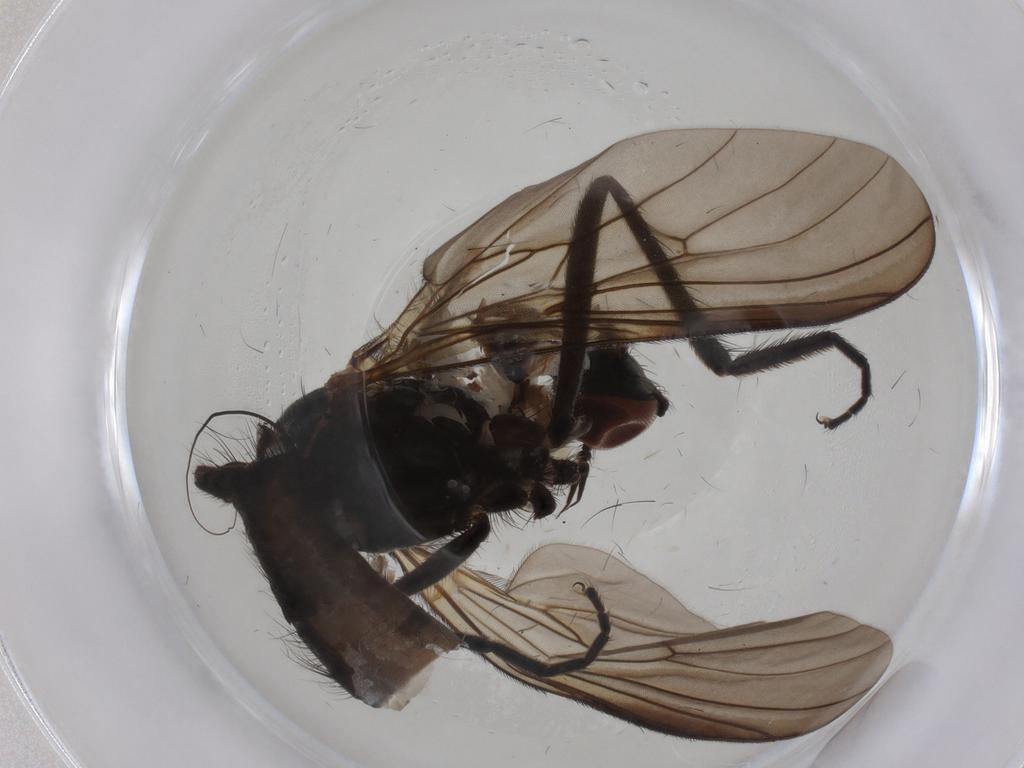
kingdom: Animalia
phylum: Arthropoda
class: Insecta
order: Diptera
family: Empididae
